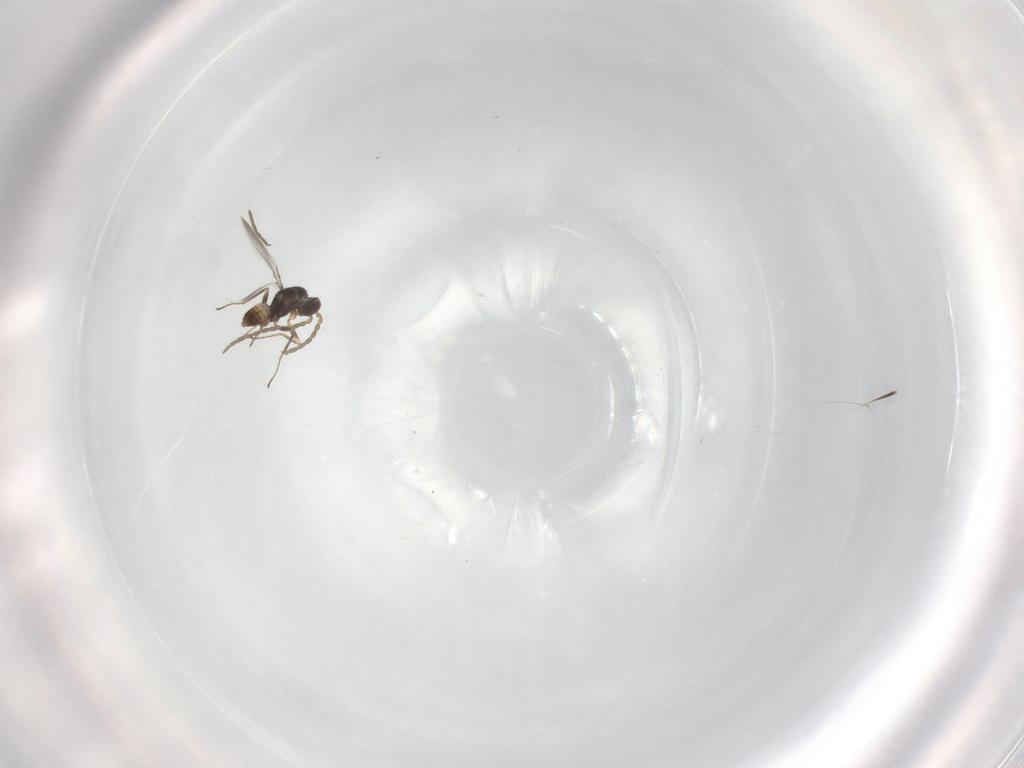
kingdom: Animalia
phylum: Arthropoda
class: Insecta
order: Hymenoptera
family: Mymaridae
